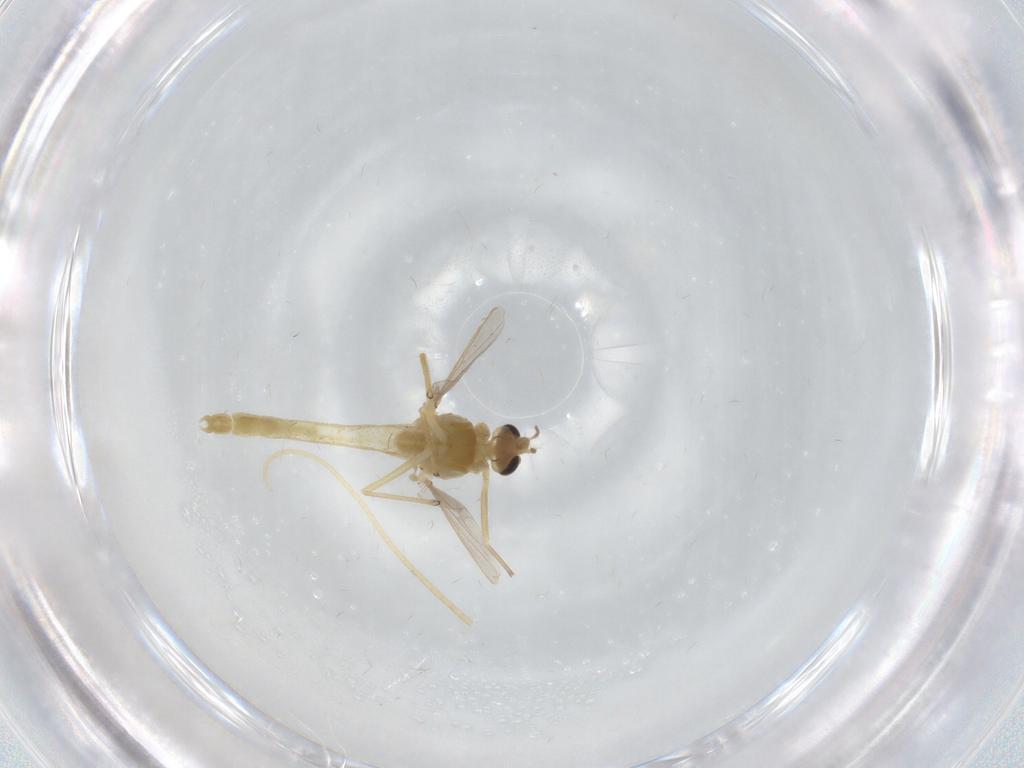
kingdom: Animalia
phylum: Arthropoda
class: Insecta
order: Diptera
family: Chironomidae
